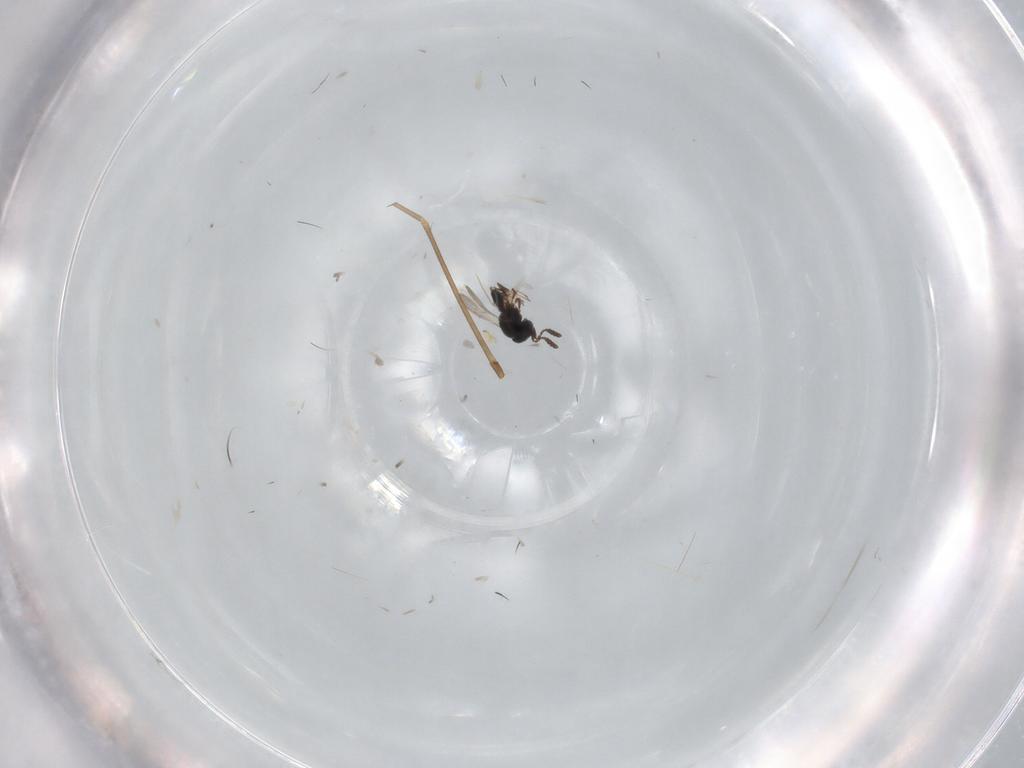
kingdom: Animalia
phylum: Arthropoda
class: Insecta
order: Hymenoptera
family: Scelionidae
